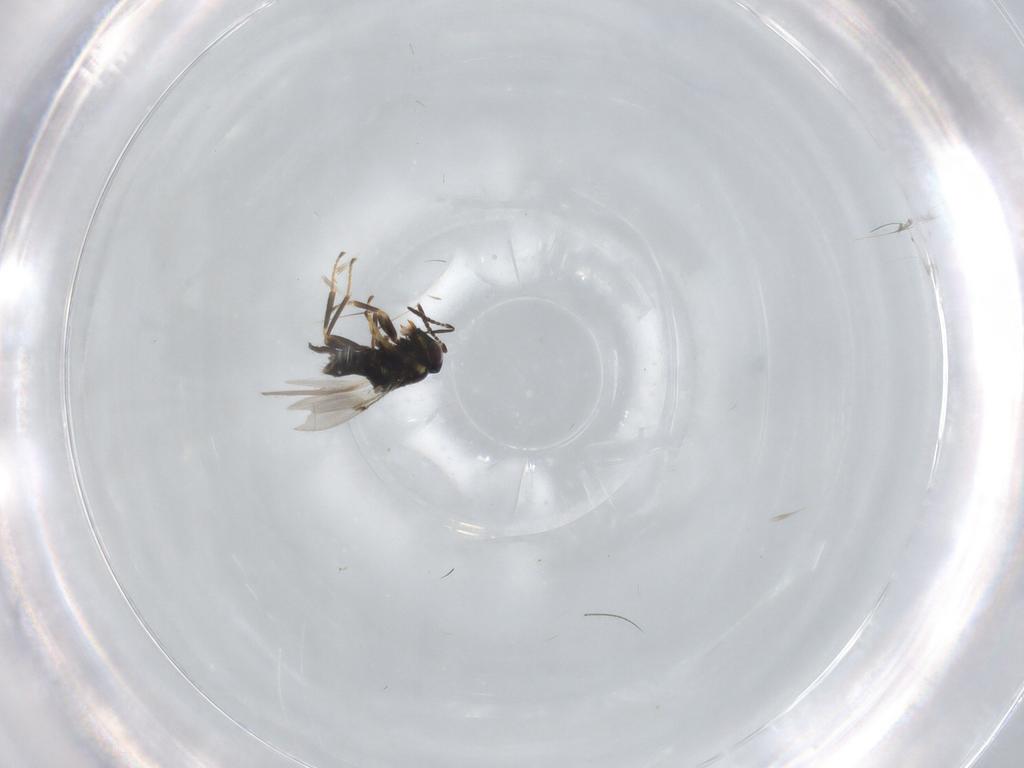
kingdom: Animalia
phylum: Arthropoda
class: Insecta
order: Hymenoptera
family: Encyrtidae
